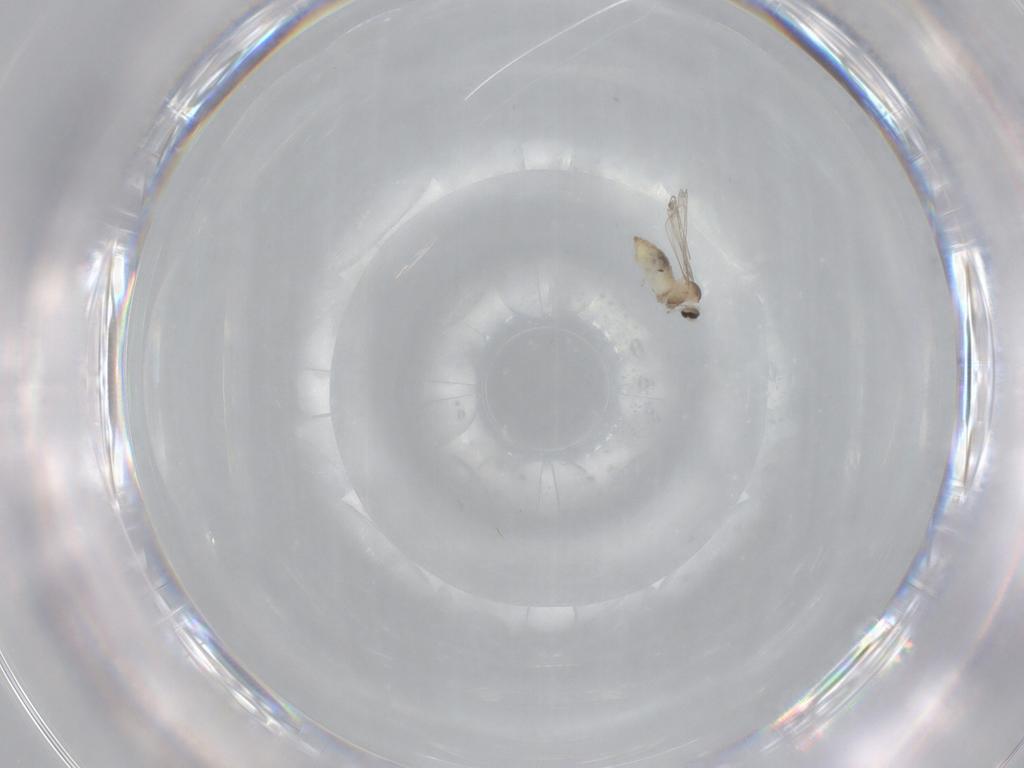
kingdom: Animalia
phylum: Arthropoda
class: Insecta
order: Diptera
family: Cecidomyiidae
